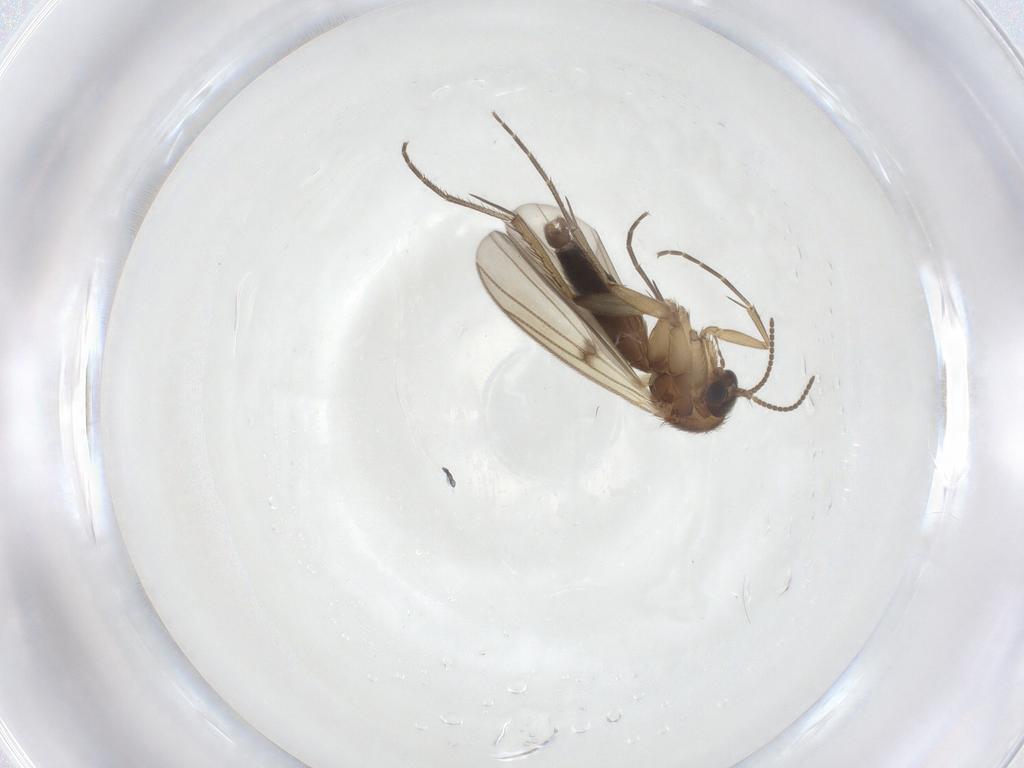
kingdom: Animalia
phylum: Arthropoda
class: Insecta
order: Diptera
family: Mycetophilidae
